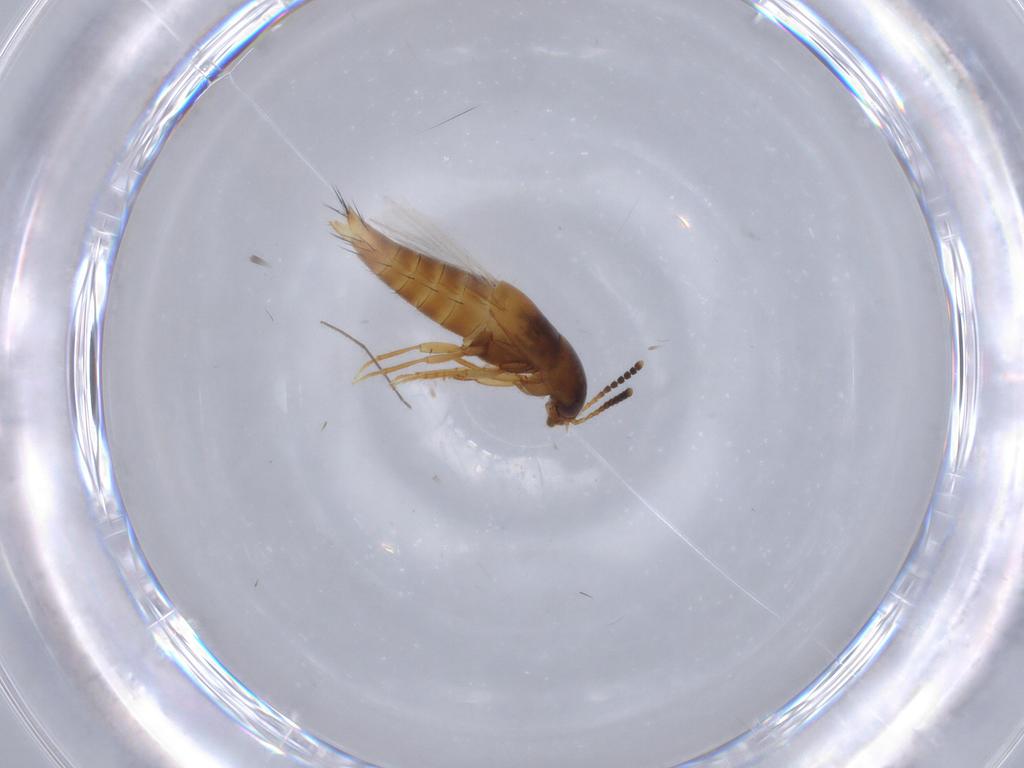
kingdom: Animalia
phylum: Arthropoda
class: Insecta
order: Coleoptera
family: Staphylinidae
